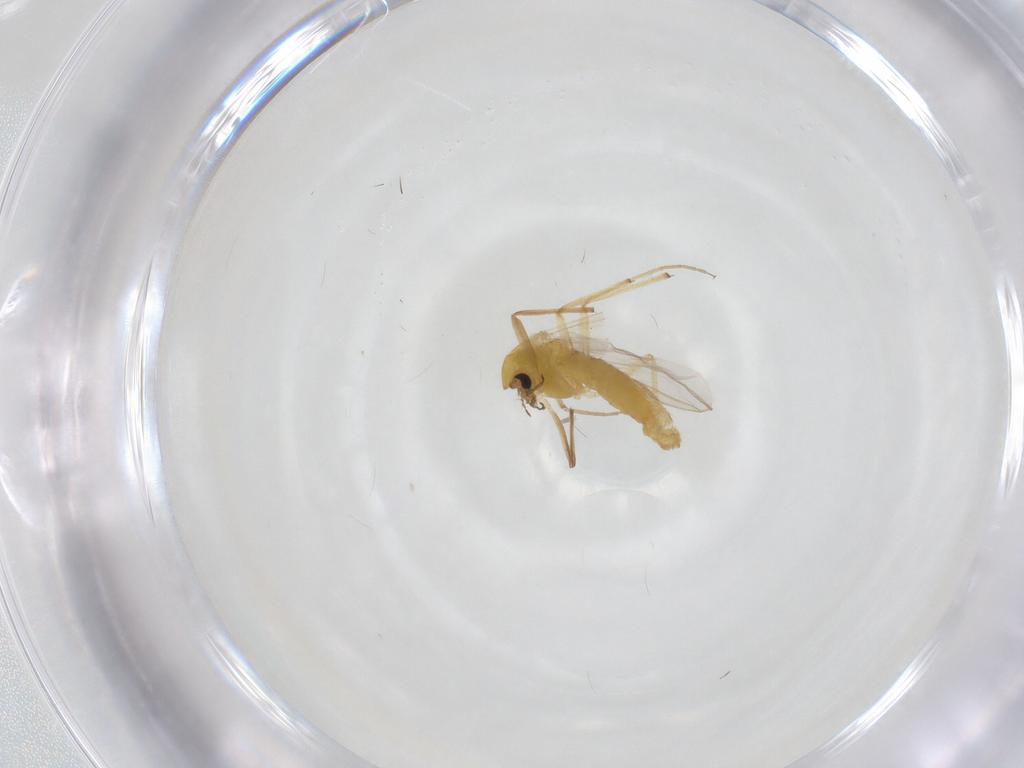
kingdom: Animalia
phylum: Arthropoda
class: Insecta
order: Diptera
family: Chironomidae
